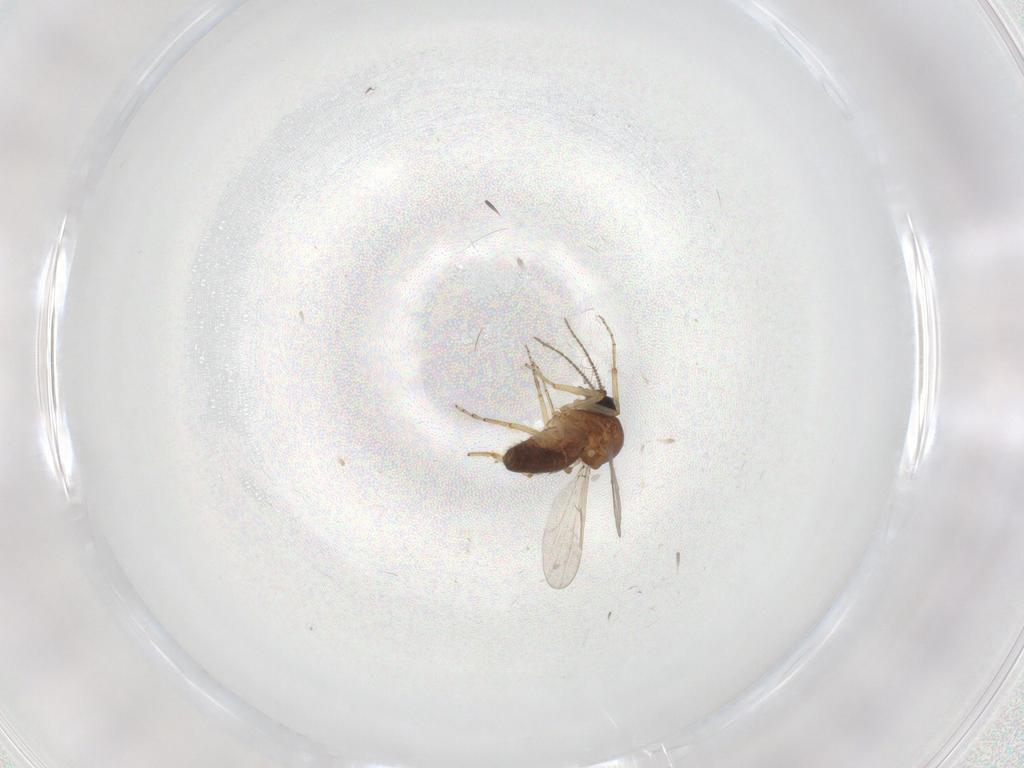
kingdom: Animalia
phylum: Arthropoda
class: Insecta
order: Diptera
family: Ceratopogonidae
